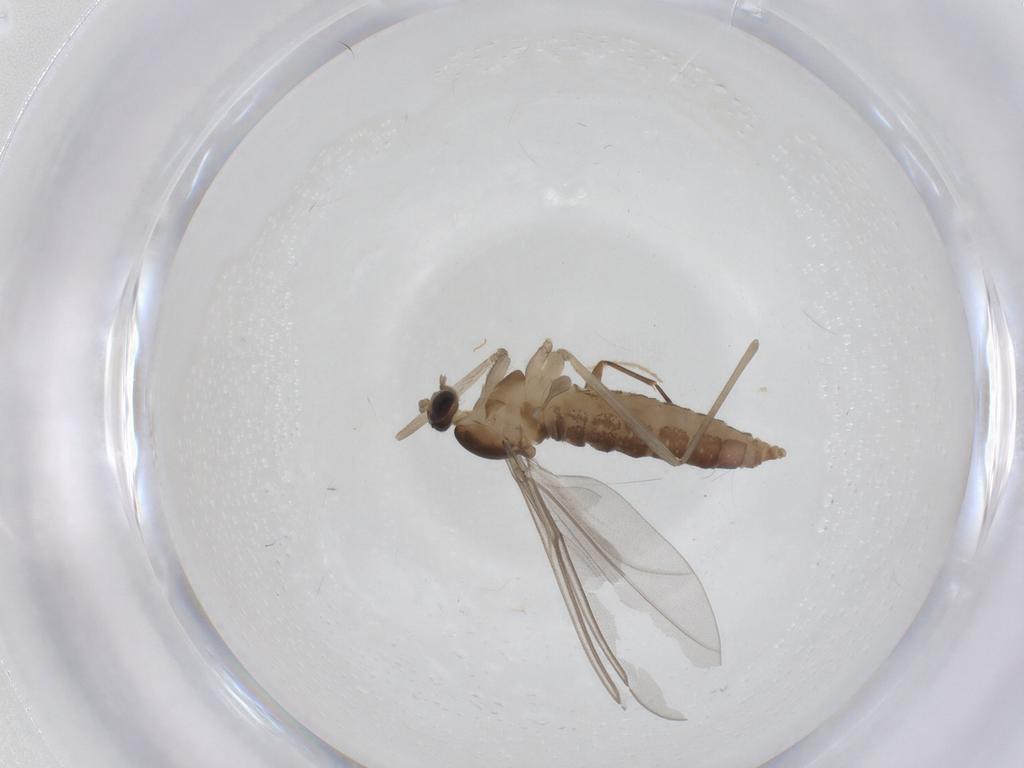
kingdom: Animalia
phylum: Arthropoda
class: Insecta
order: Diptera
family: Cecidomyiidae
